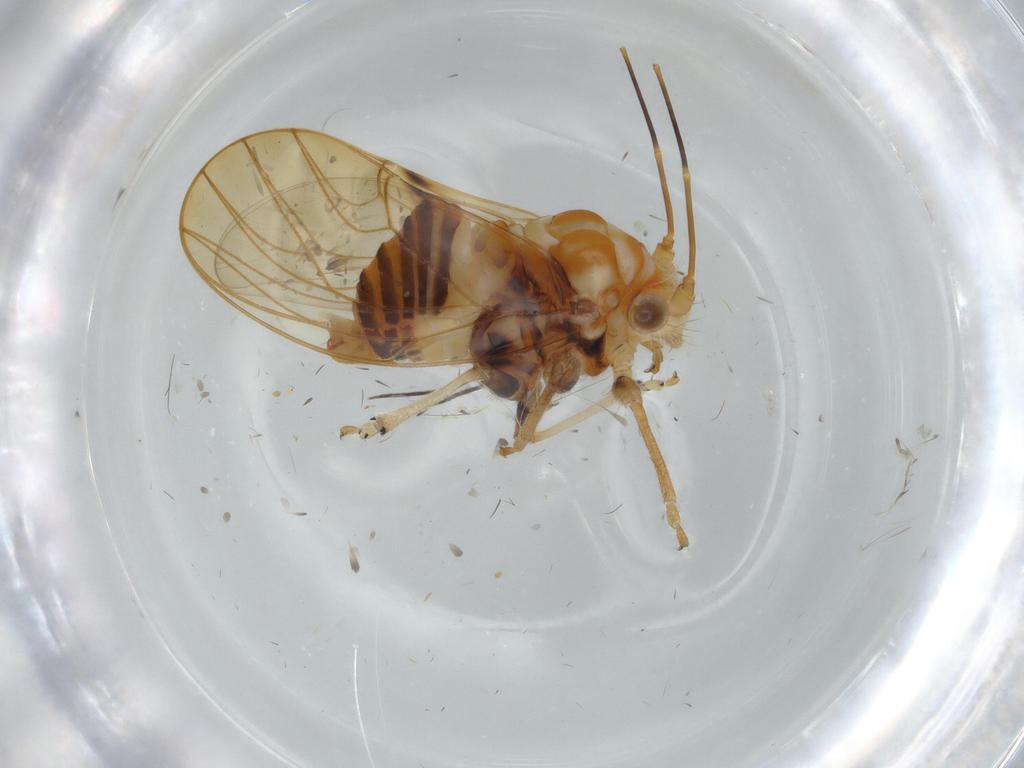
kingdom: Animalia
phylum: Arthropoda
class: Insecta
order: Hemiptera
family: Psyllidae
